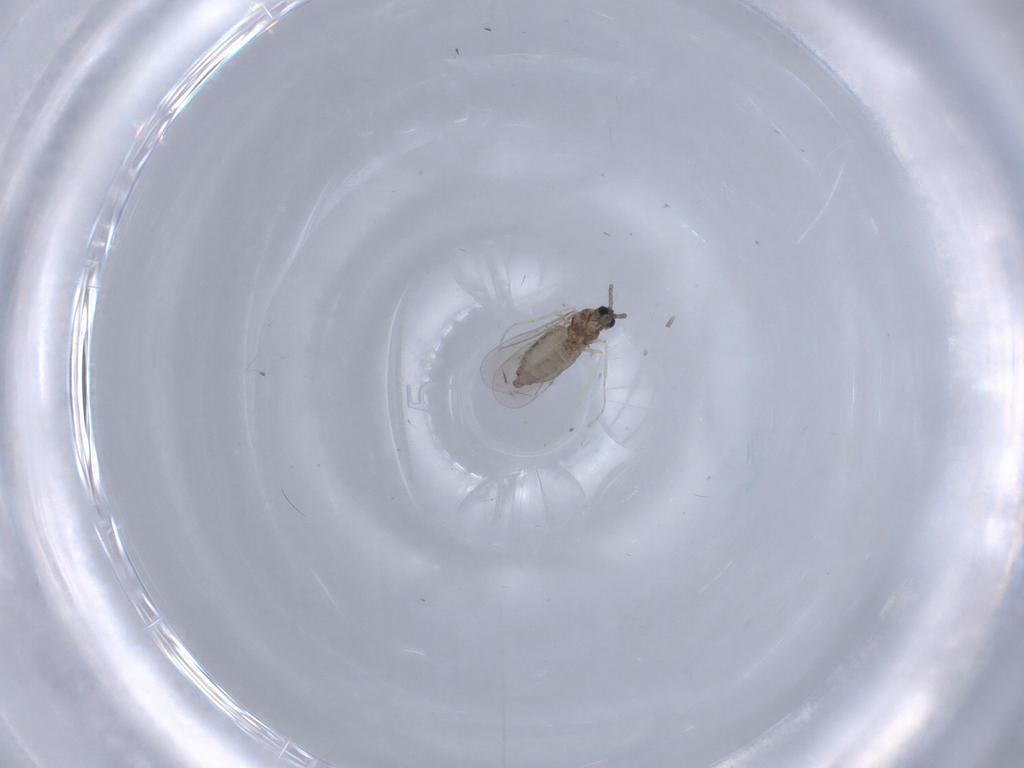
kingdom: Animalia
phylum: Arthropoda
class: Insecta
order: Diptera
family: Cecidomyiidae
